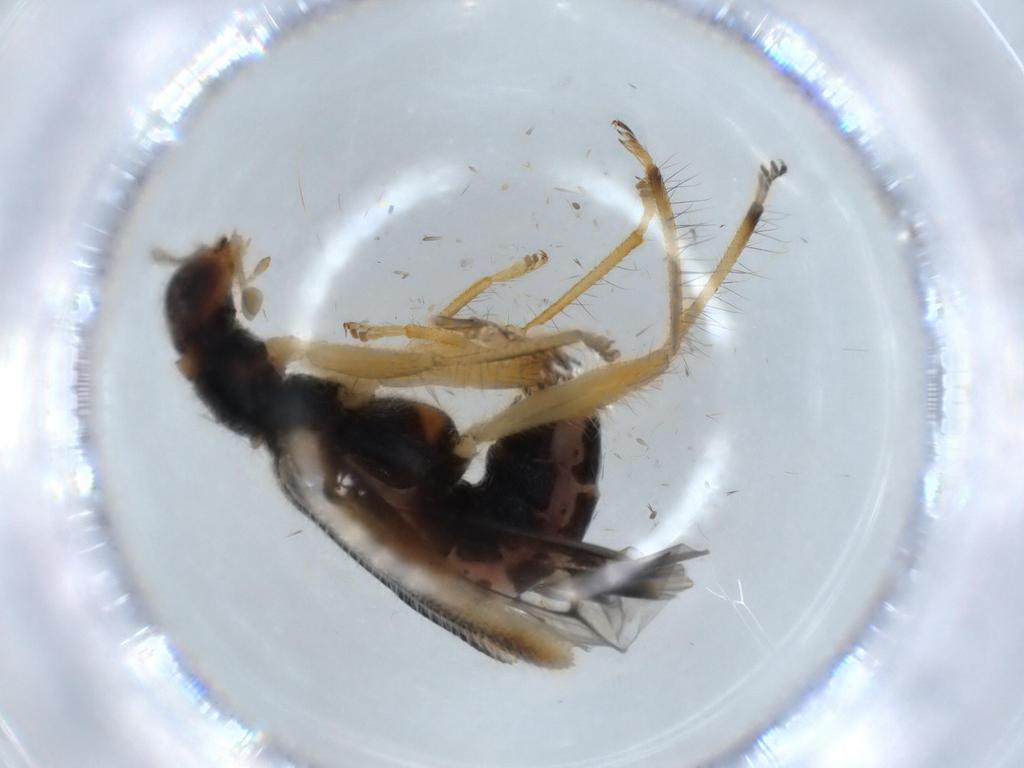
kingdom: Animalia
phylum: Arthropoda
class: Insecta
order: Coleoptera
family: Chrysomelidae
